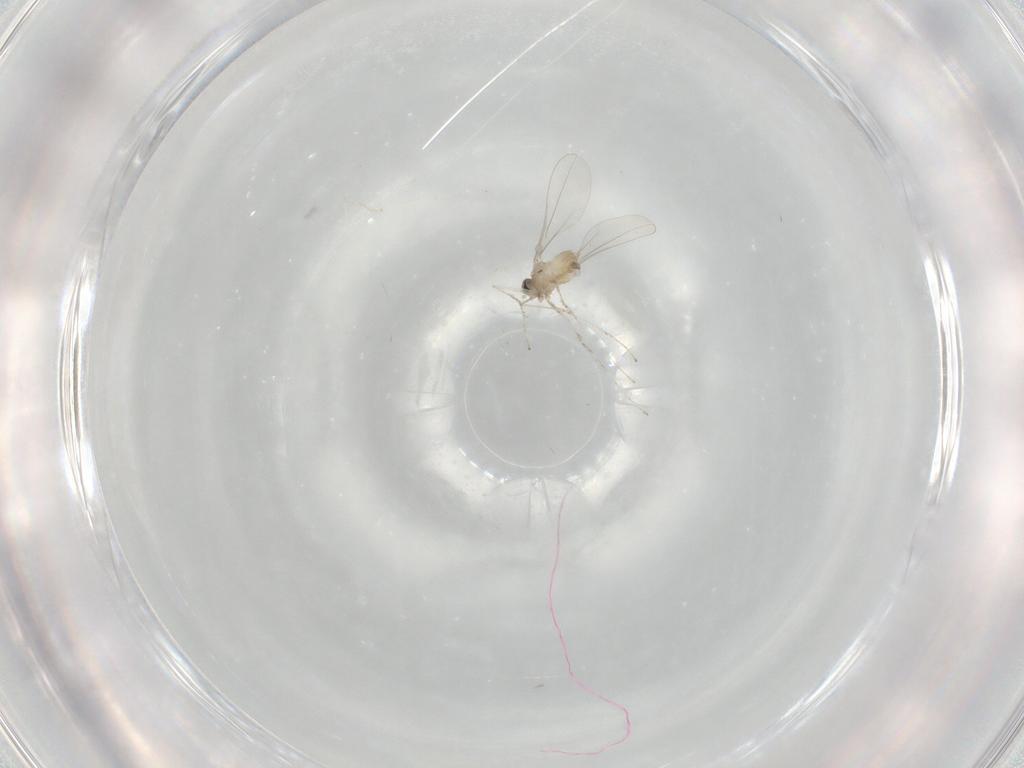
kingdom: Animalia
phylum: Arthropoda
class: Insecta
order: Diptera
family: Cecidomyiidae
